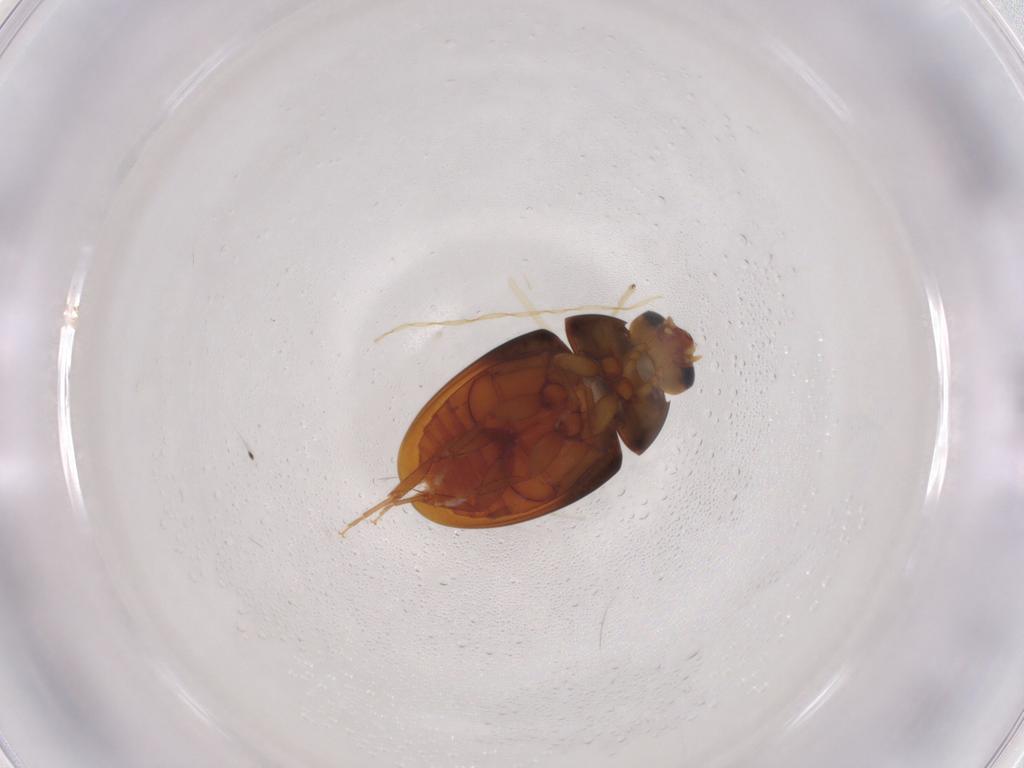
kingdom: Animalia
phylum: Arthropoda
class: Insecta
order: Coleoptera
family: Phalacridae
